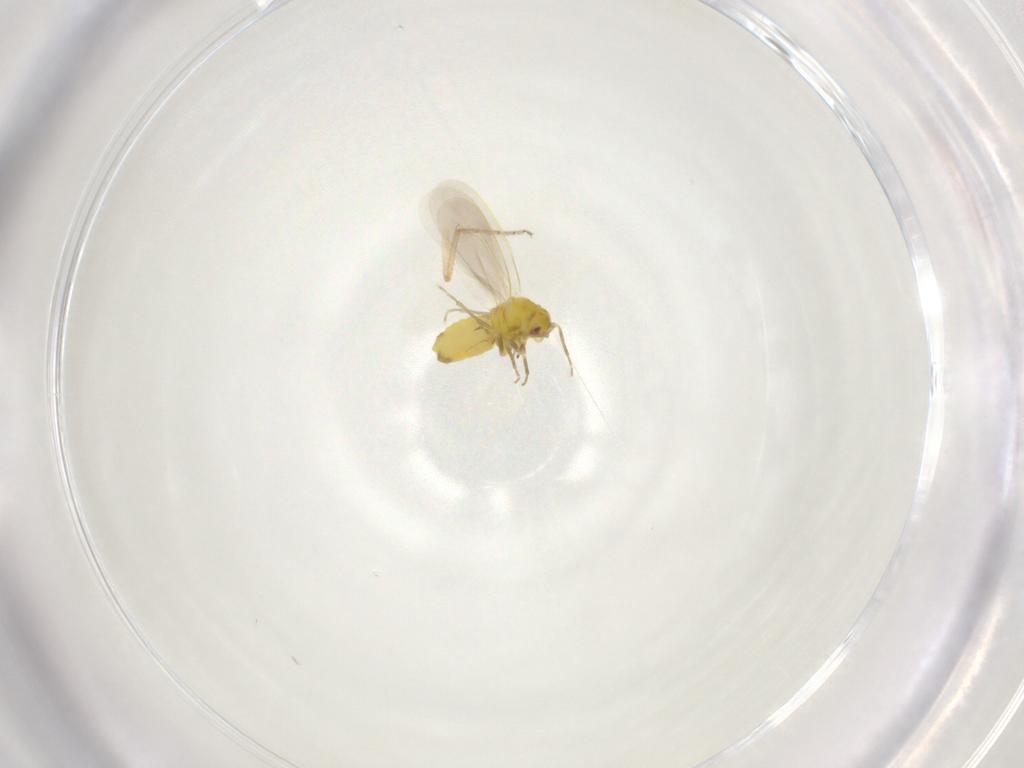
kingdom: Animalia
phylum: Arthropoda
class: Insecta
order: Hemiptera
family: Aleyrodidae
